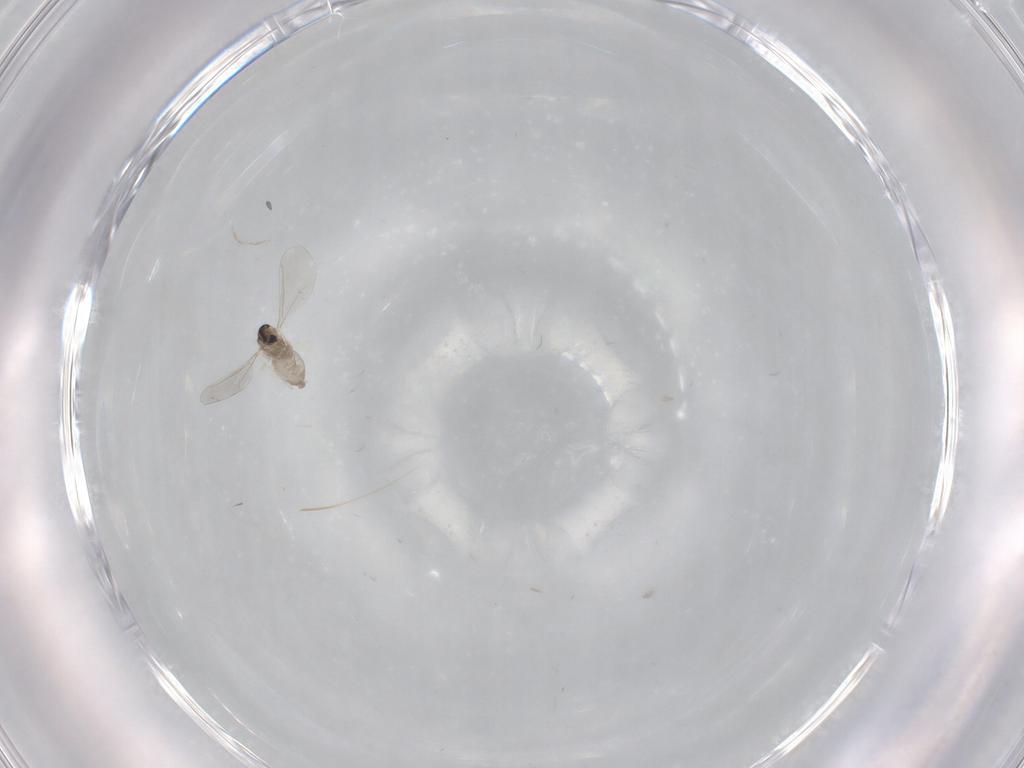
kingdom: Animalia
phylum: Arthropoda
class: Insecta
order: Diptera
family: Cecidomyiidae
